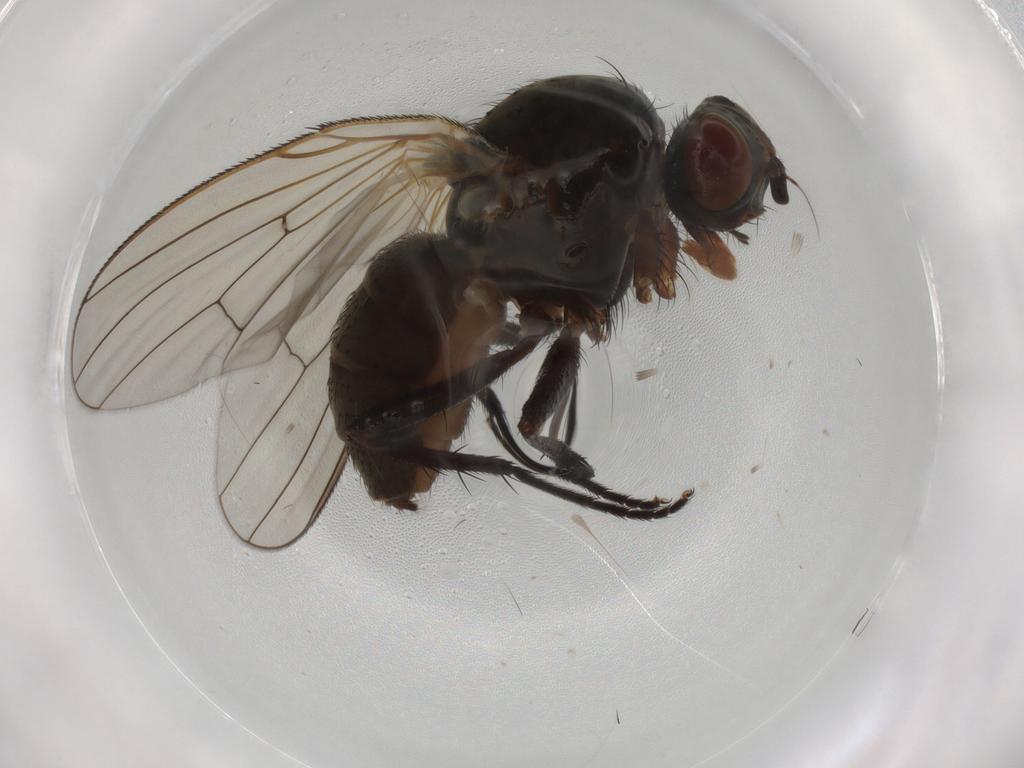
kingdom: Animalia
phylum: Arthropoda
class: Insecta
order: Diptera
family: Anthomyiidae
